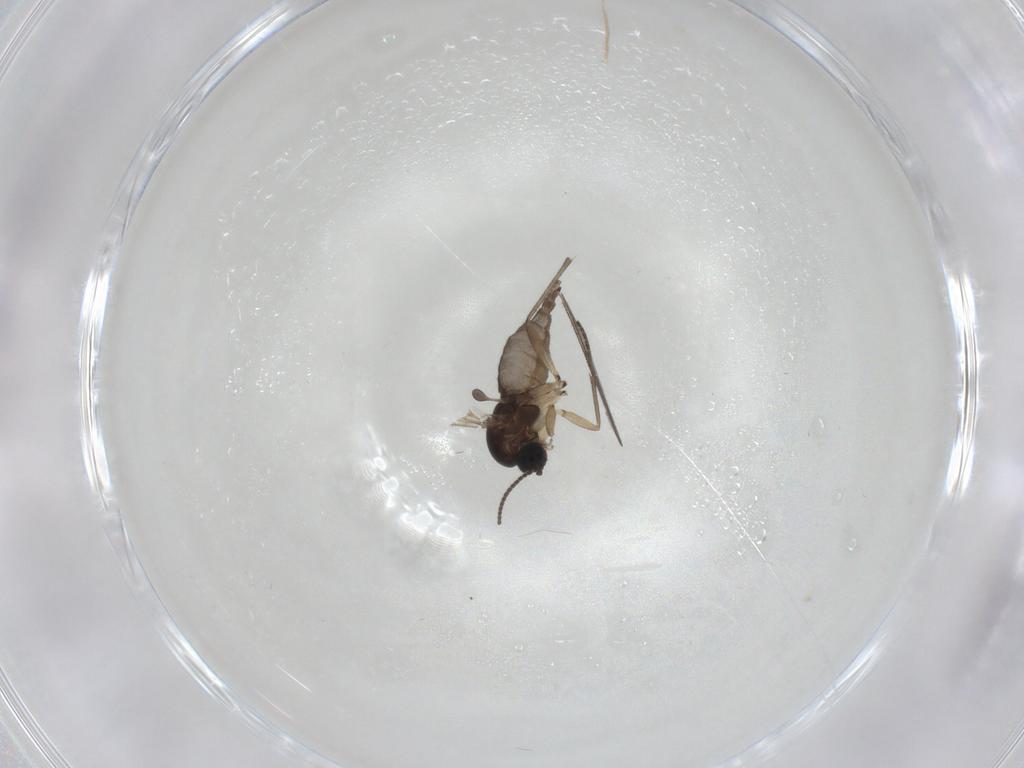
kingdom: Animalia
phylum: Arthropoda
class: Insecta
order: Diptera
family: Sciaridae
